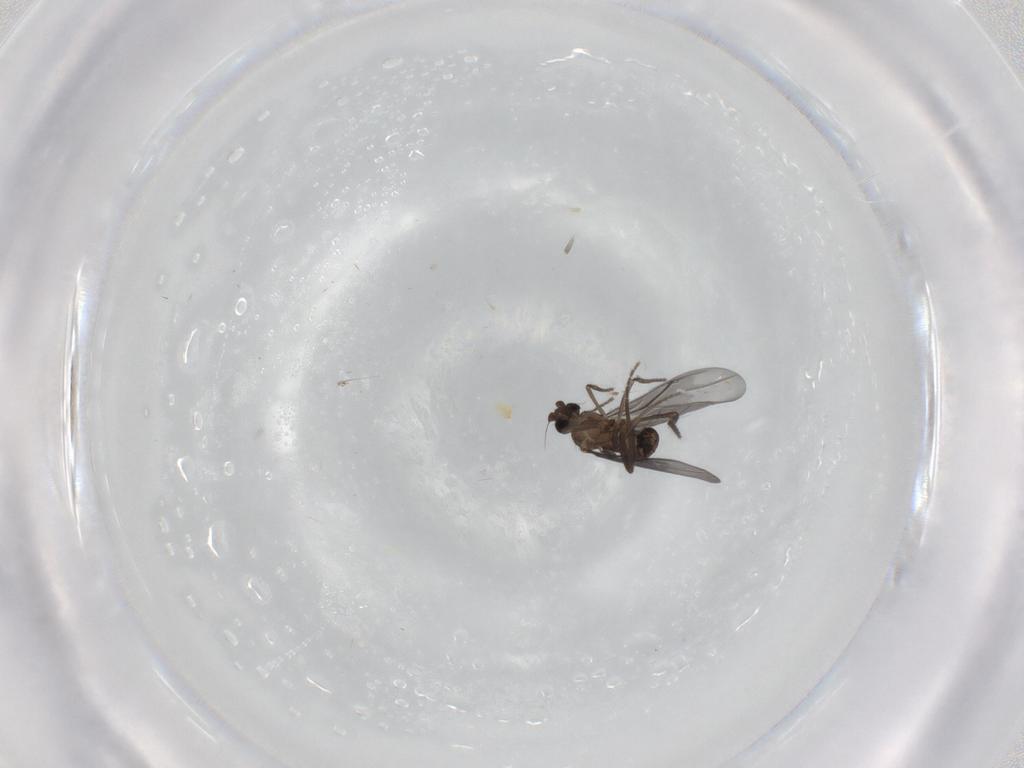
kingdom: Animalia
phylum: Arthropoda
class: Insecta
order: Diptera
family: Phoridae
